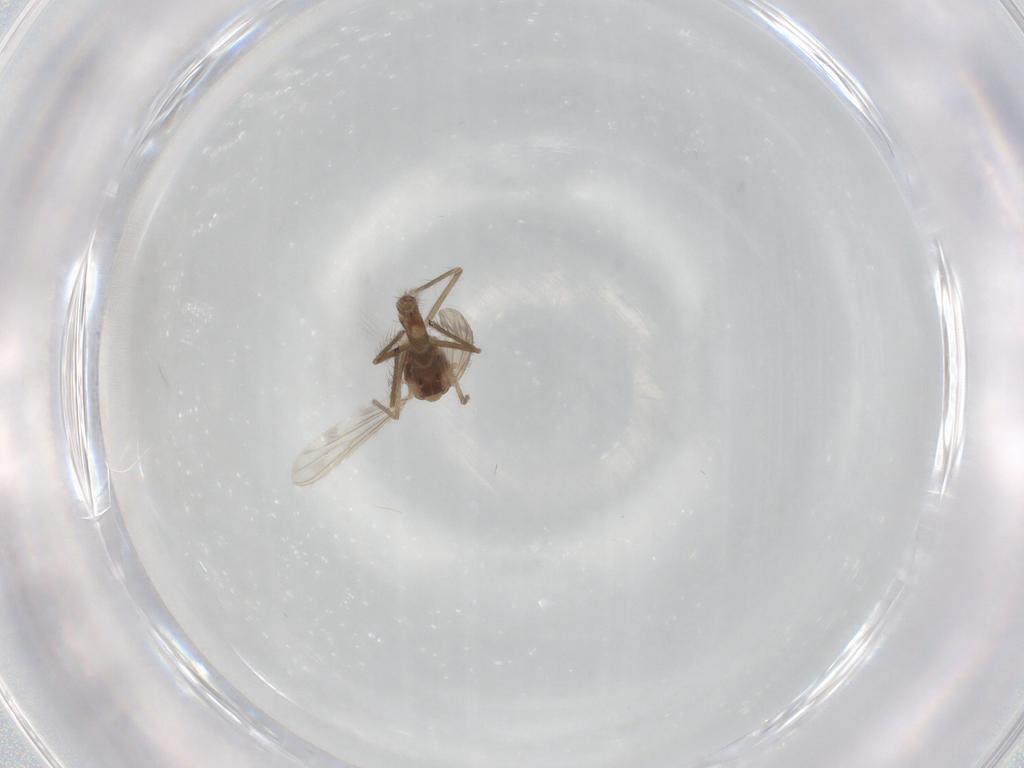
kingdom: Animalia
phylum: Arthropoda
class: Insecta
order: Diptera
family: Chironomidae
